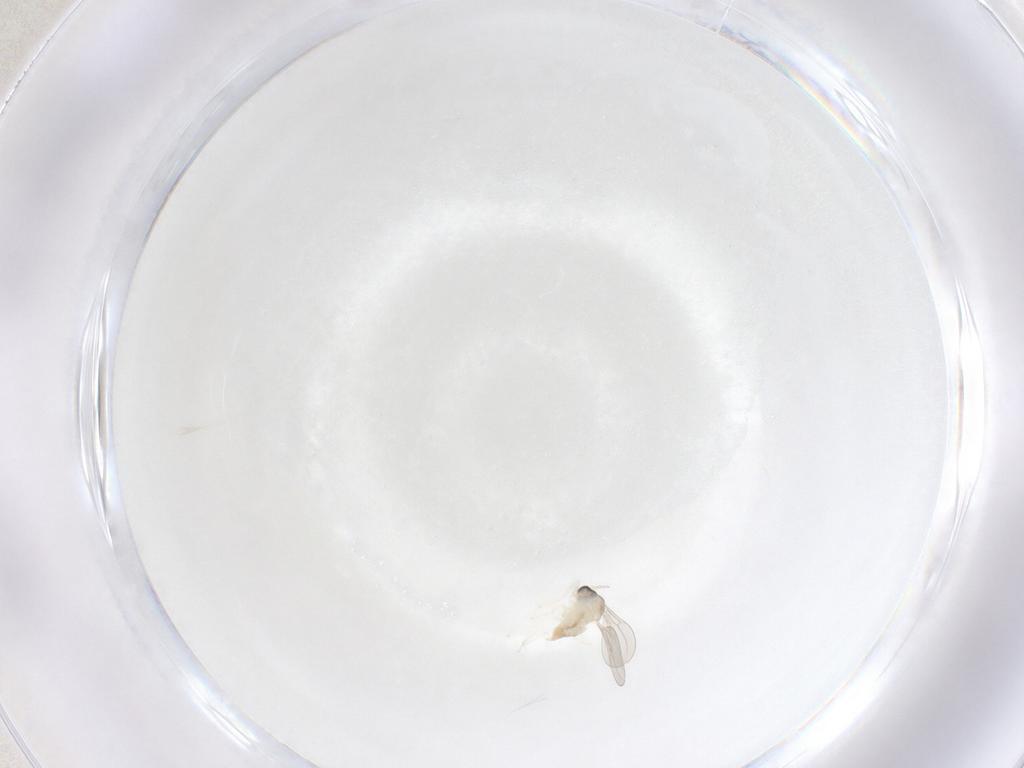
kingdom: Animalia
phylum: Arthropoda
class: Insecta
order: Diptera
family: Cecidomyiidae
